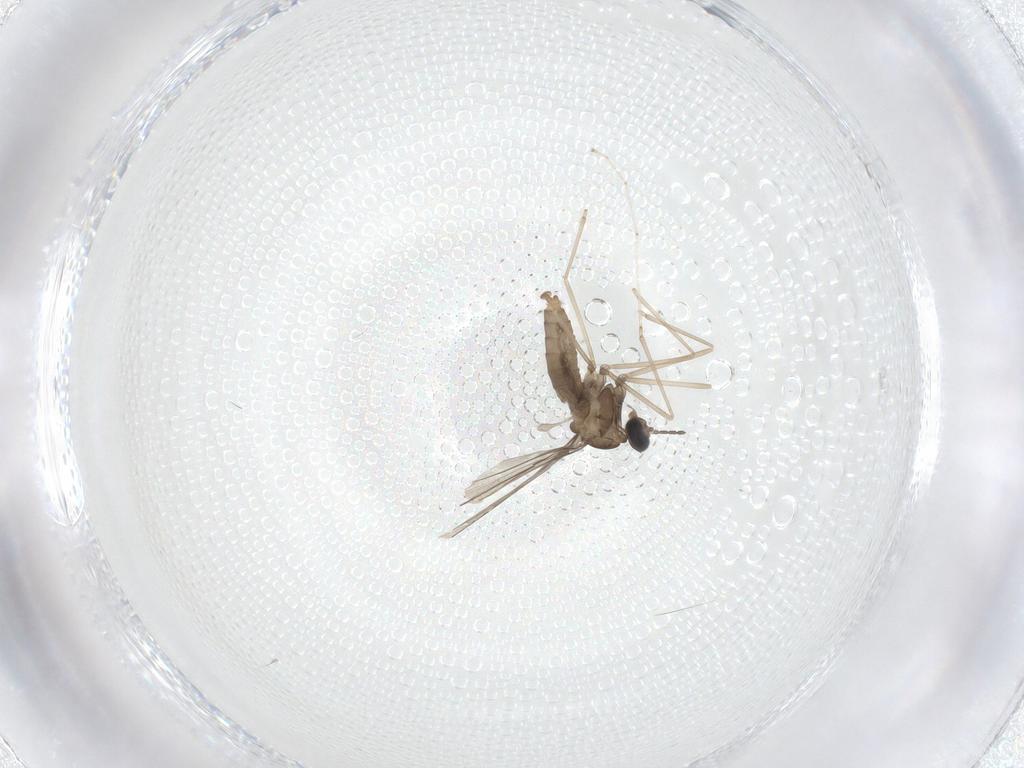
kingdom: Animalia
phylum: Arthropoda
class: Insecta
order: Diptera
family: Cecidomyiidae
